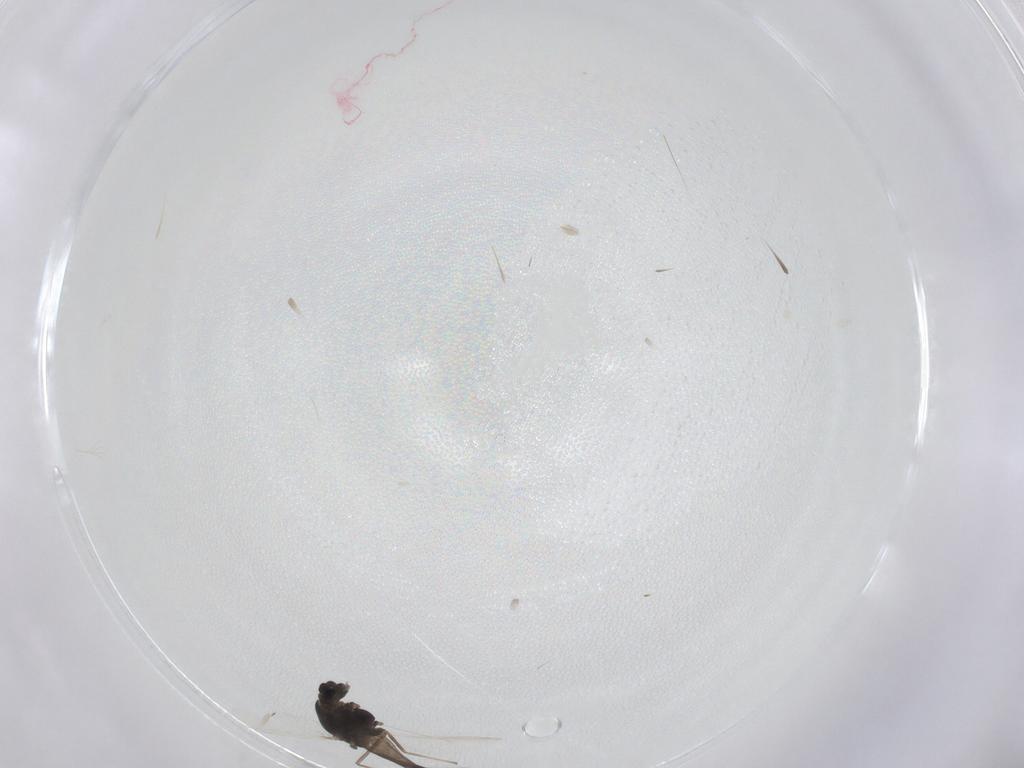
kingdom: Animalia
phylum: Arthropoda
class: Insecta
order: Diptera
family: Chironomidae
